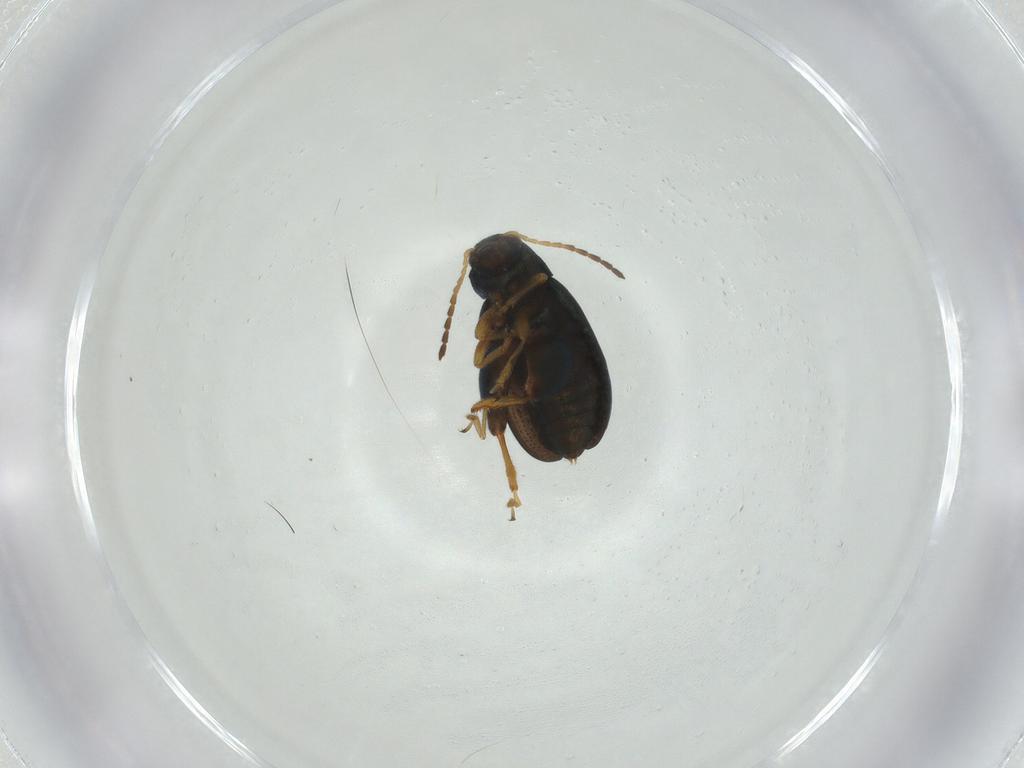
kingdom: Animalia
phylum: Arthropoda
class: Insecta
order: Coleoptera
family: Chrysomelidae
